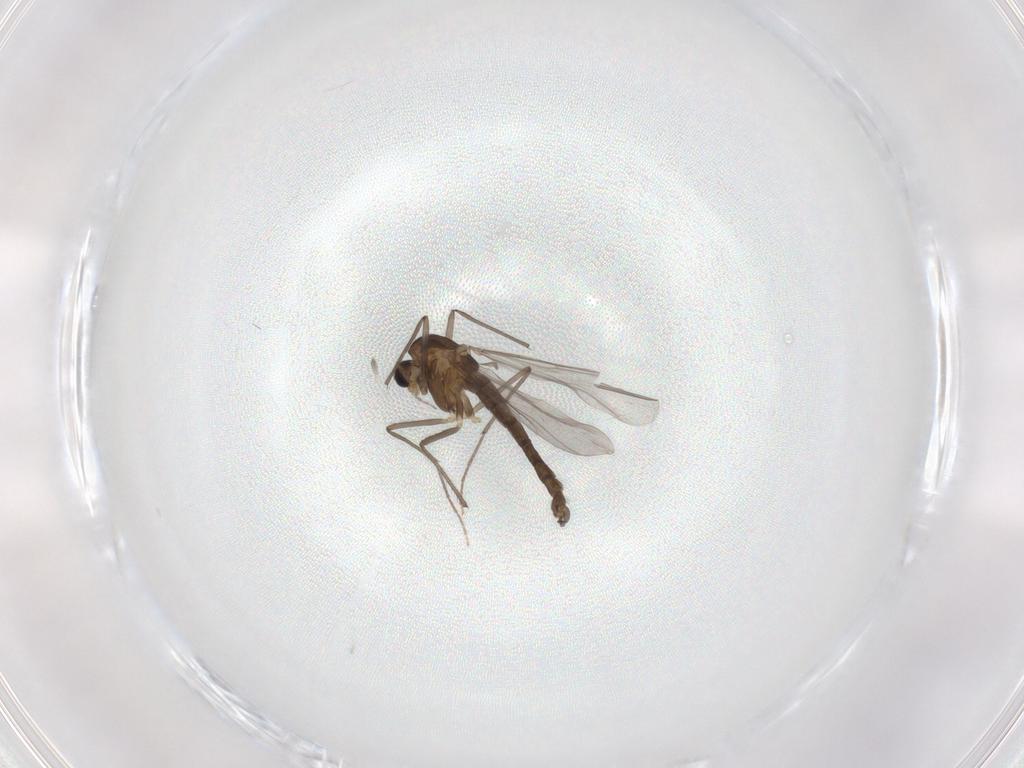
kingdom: Animalia
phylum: Arthropoda
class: Insecta
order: Diptera
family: Chironomidae
